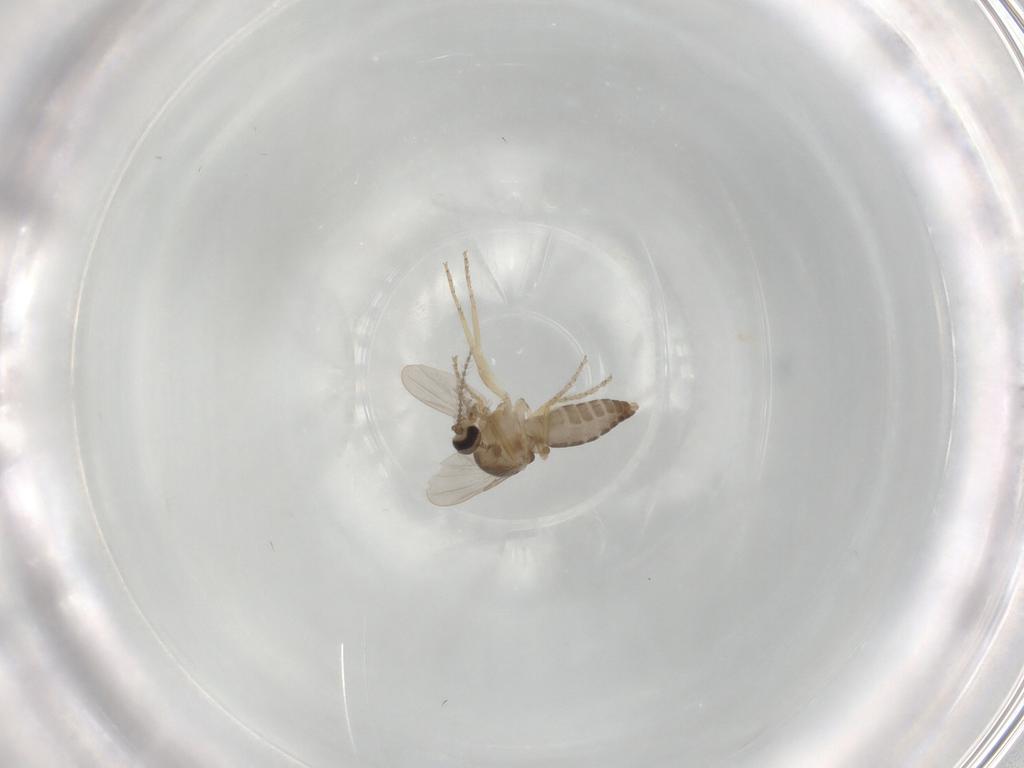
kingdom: Animalia
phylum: Arthropoda
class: Insecta
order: Diptera
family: Ceratopogonidae
